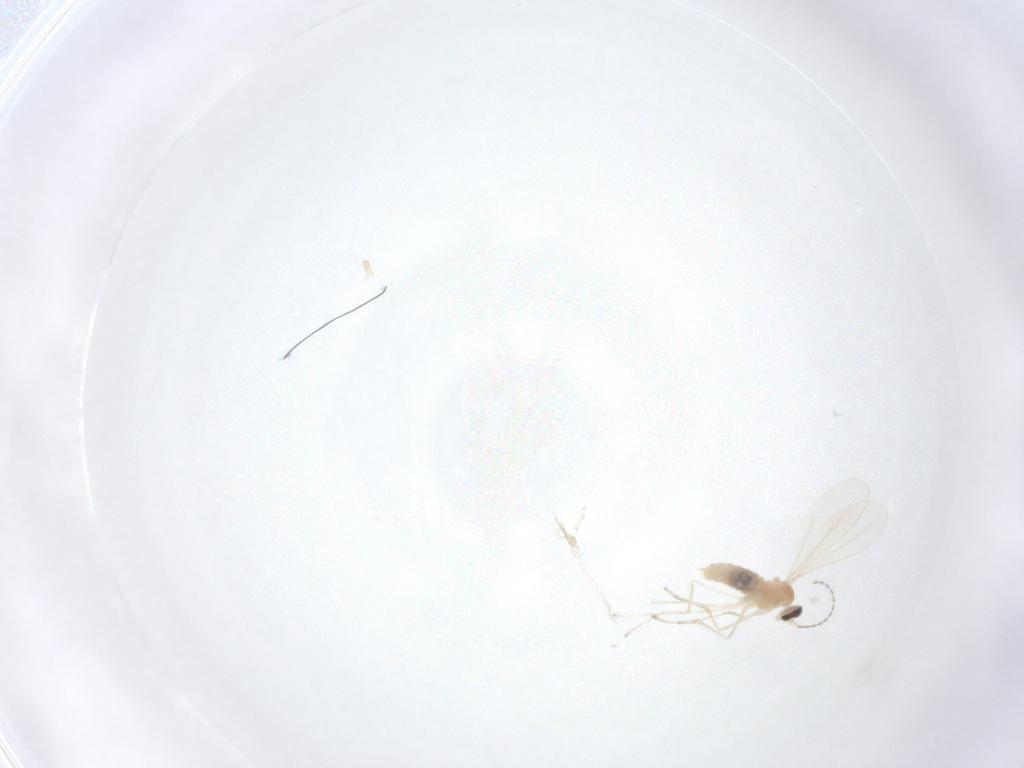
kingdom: Animalia
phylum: Arthropoda
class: Insecta
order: Diptera
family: Cecidomyiidae
